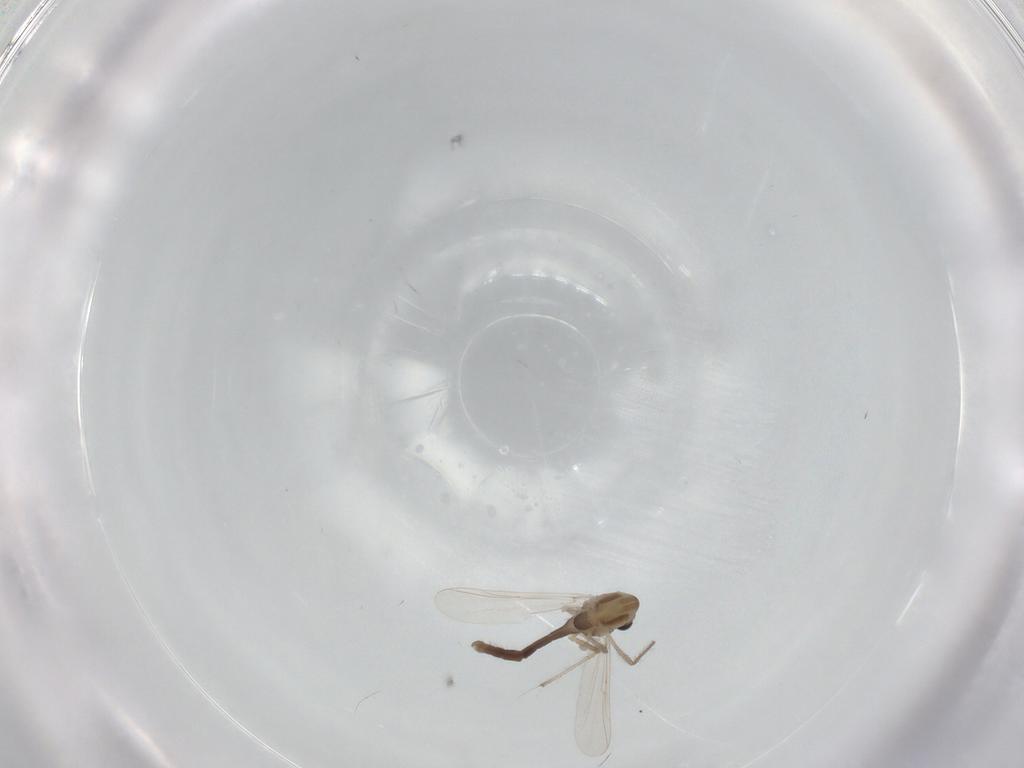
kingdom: Animalia
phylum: Arthropoda
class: Insecta
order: Diptera
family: Chironomidae
